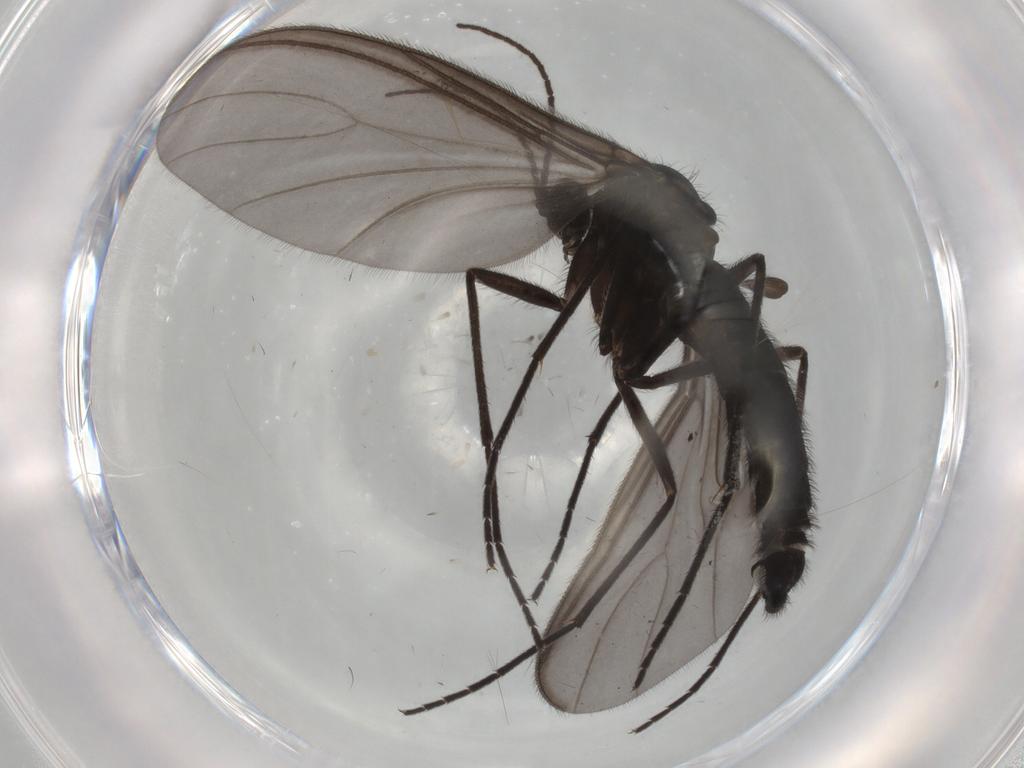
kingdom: Animalia
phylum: Arthropoda
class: Insecta
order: Diptera
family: Sciaridae
